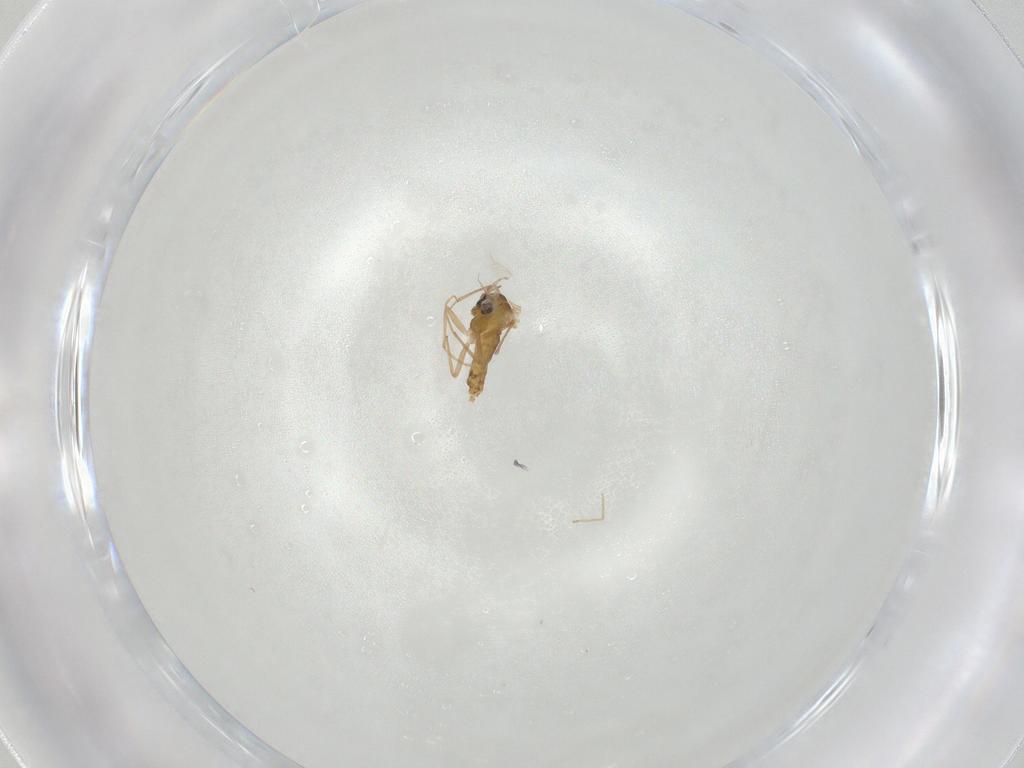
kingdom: Animalia
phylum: Arthropoda
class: Insecta
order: Diptera
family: Chironomidae
